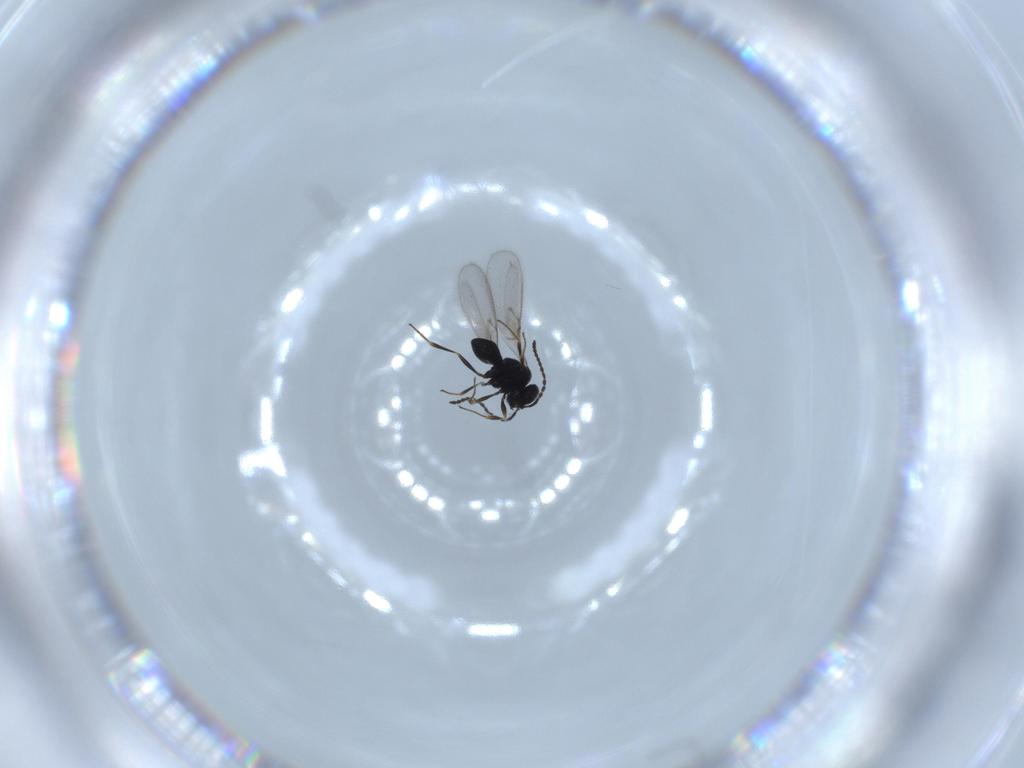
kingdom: Animalia
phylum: Arthropoda
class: Insecta
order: Hymenoptera
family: Scelionidae
